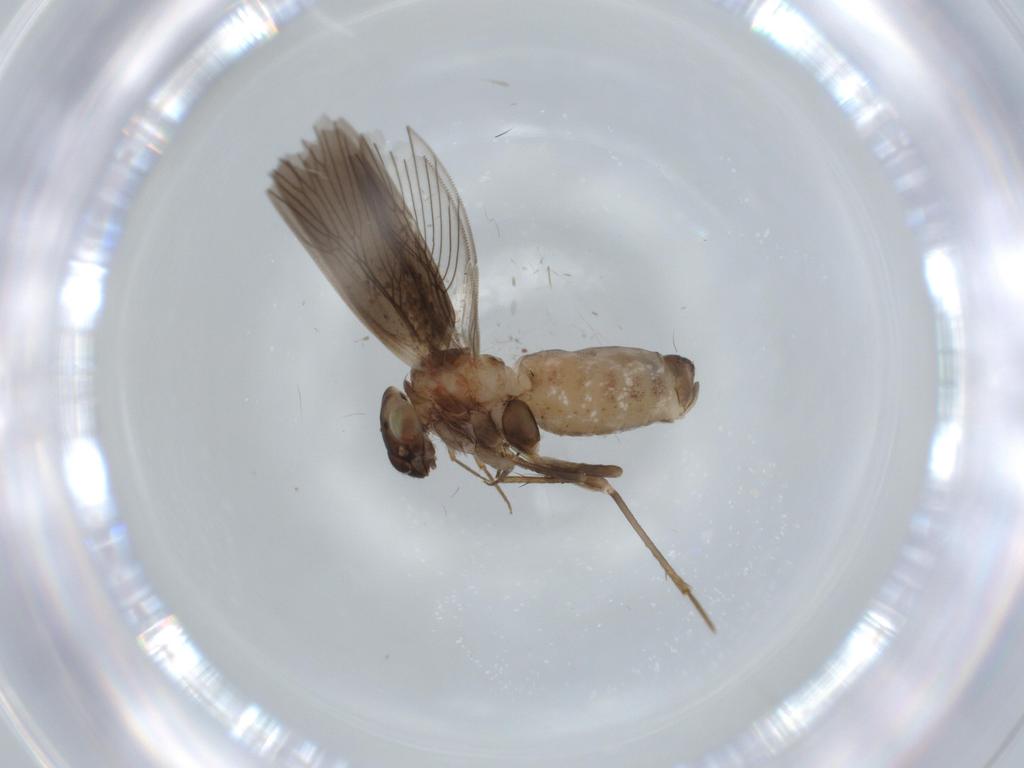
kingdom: Animalia
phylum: Arthropoda
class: Insecta
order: Psocodea
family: Lepidopsocidae
